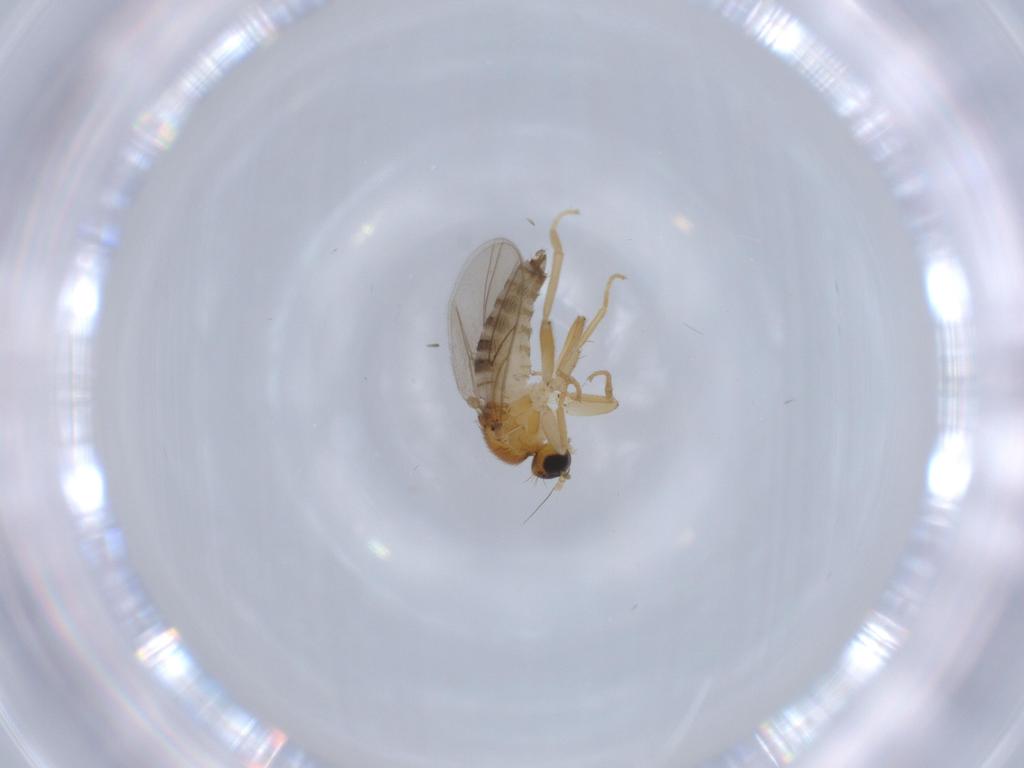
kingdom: Animalia
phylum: Arthropoda
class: Insecta
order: Diptera
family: Hybotidae
